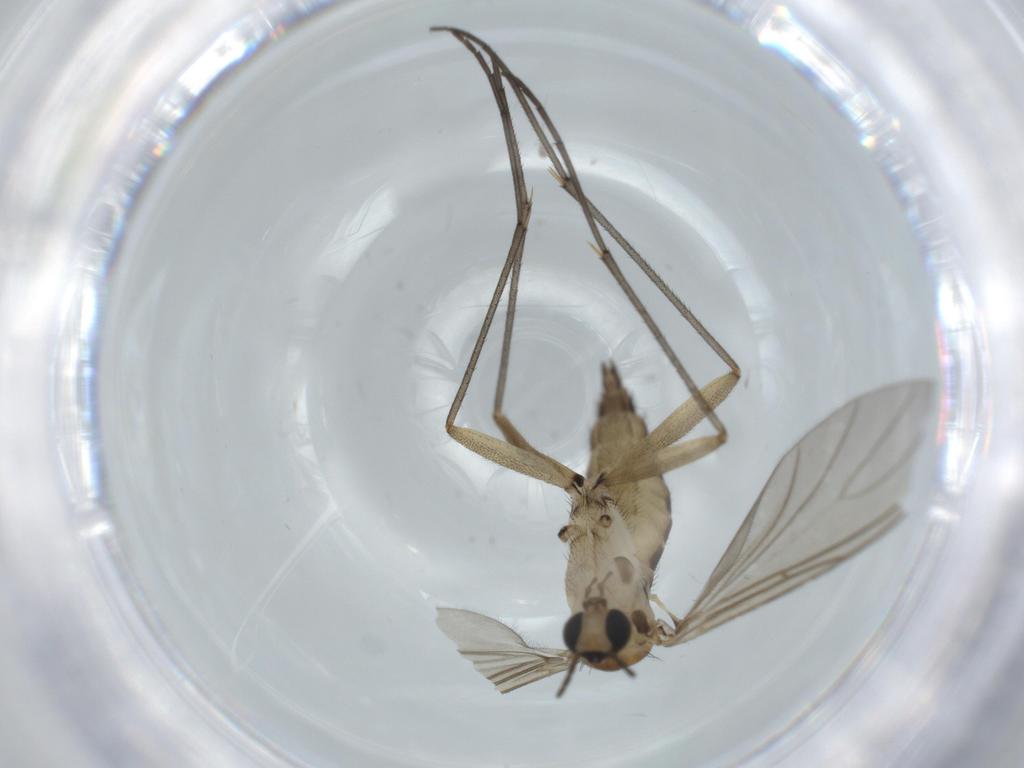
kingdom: Animalia
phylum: Arthropoda
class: Insecta
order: Diptera
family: Sciaridae
